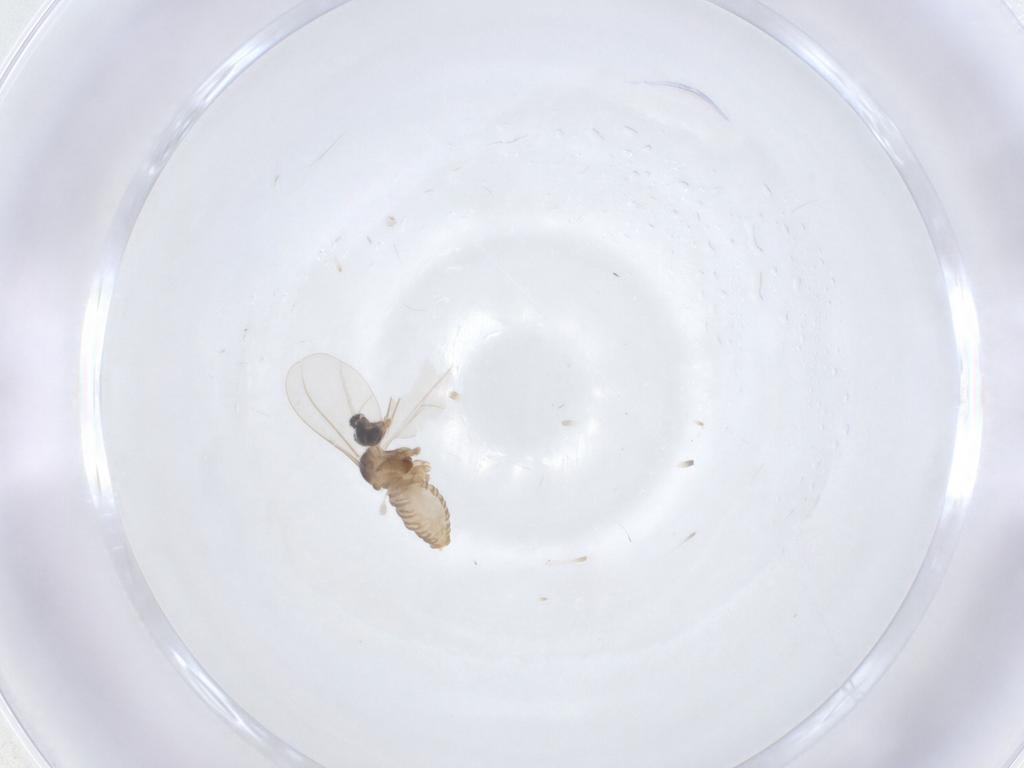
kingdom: Animalia
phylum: Arthropoda
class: Insecta
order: Diptera
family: Cecidomyiidae
